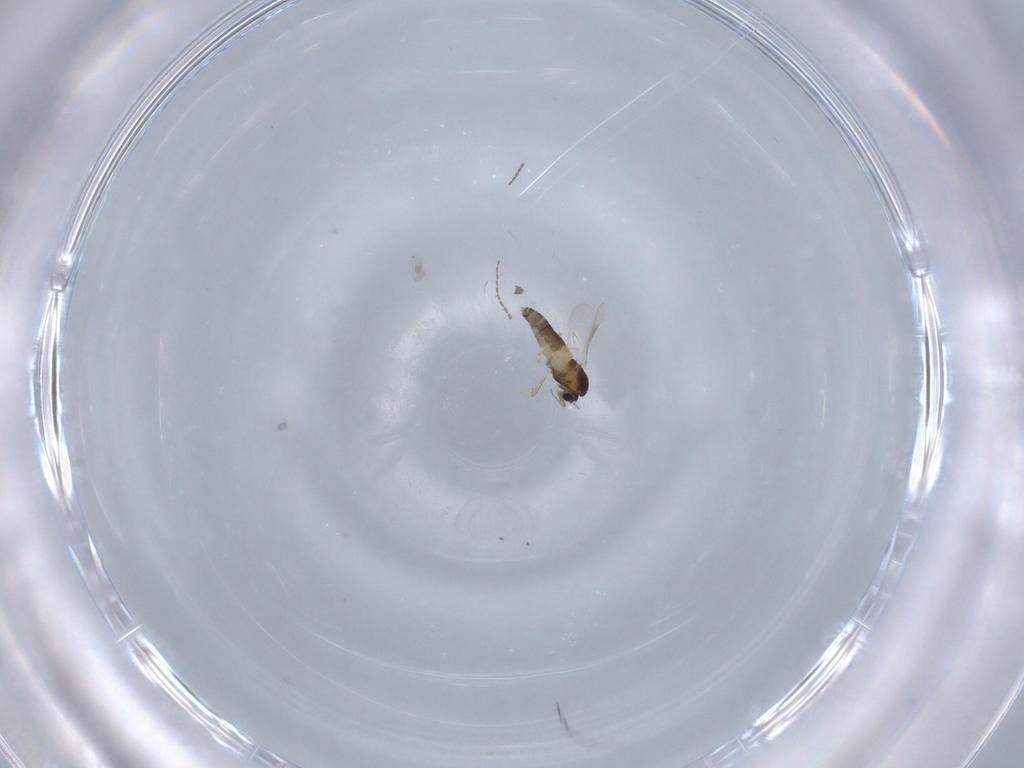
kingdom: Animalia
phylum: Arthropoda
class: Insecta
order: Diptera
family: Chironomidae
